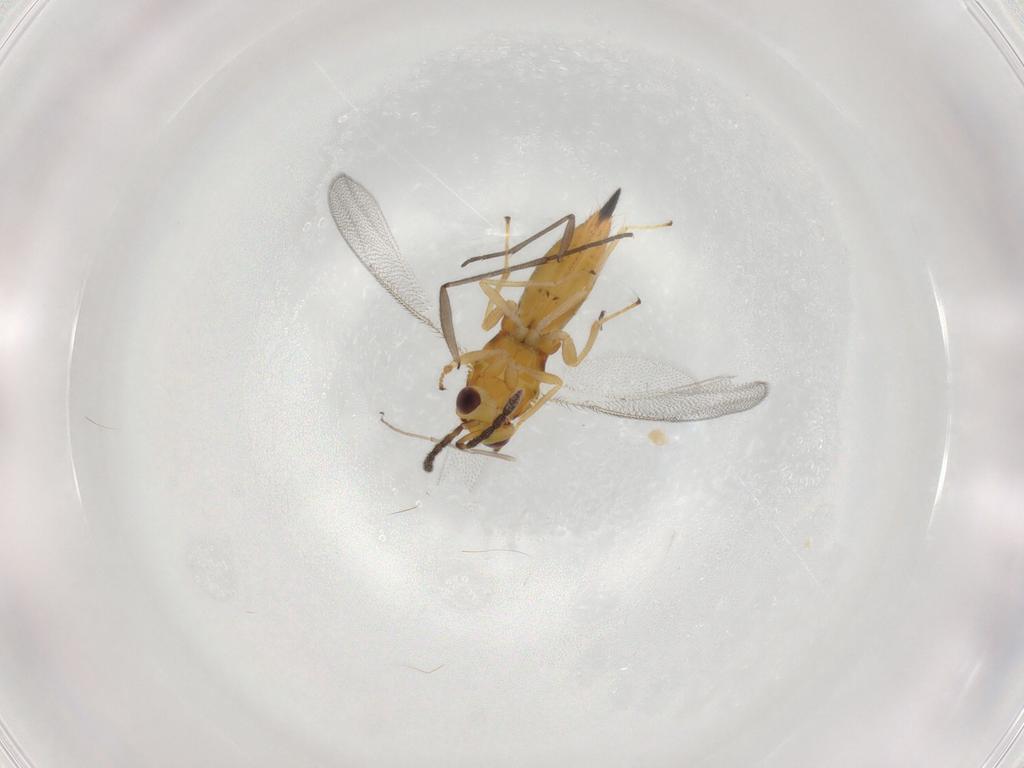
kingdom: Animalia
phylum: Arthropoda
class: Insecta
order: Hymenoptera
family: Eulophidae
